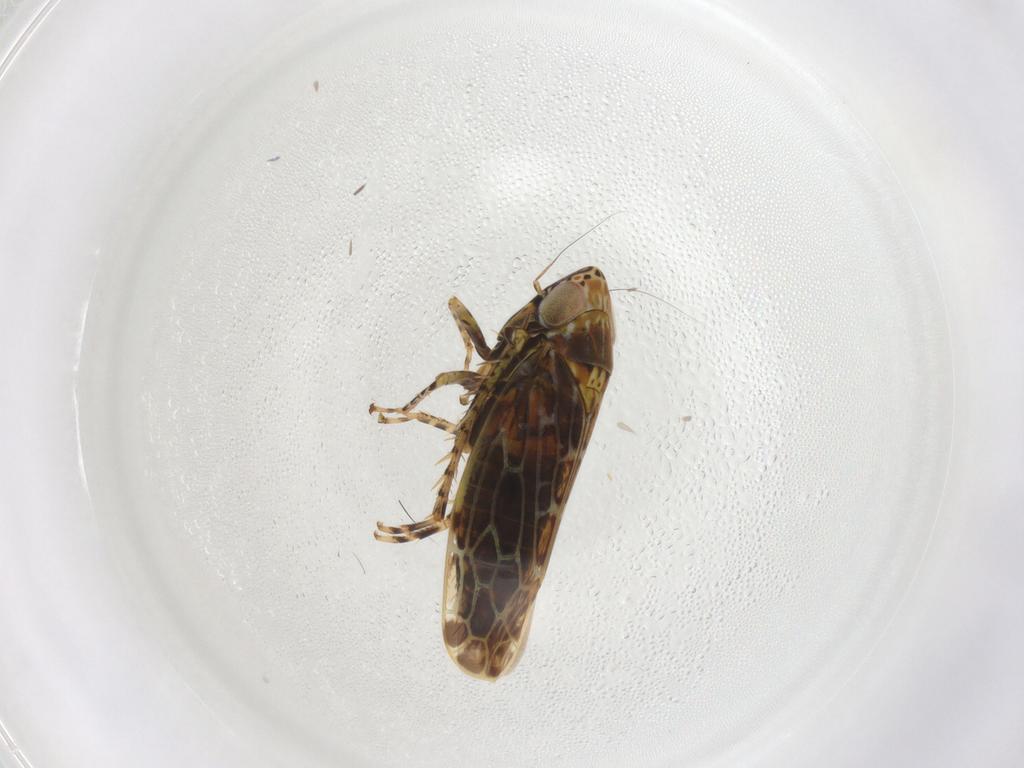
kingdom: Animalia
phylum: Arthropoda
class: Insecta
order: Hemiptera
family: Cicadellidae
